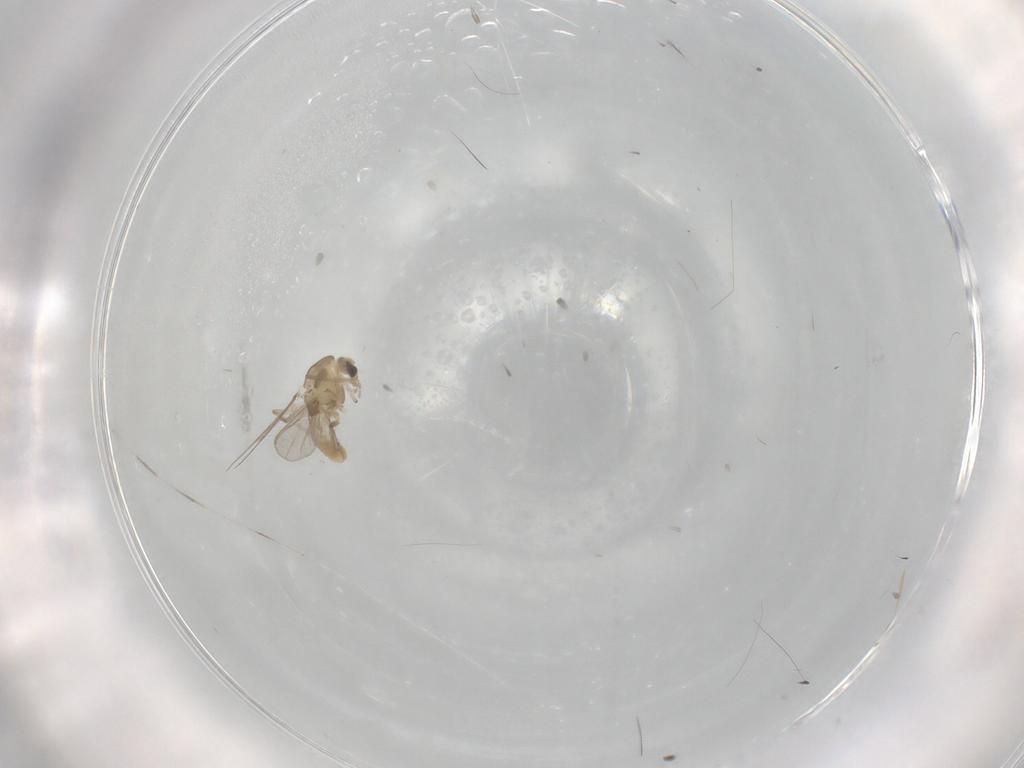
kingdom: Animalia
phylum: Arthropoda
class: Insecta
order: Diptera
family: Chironomidae
